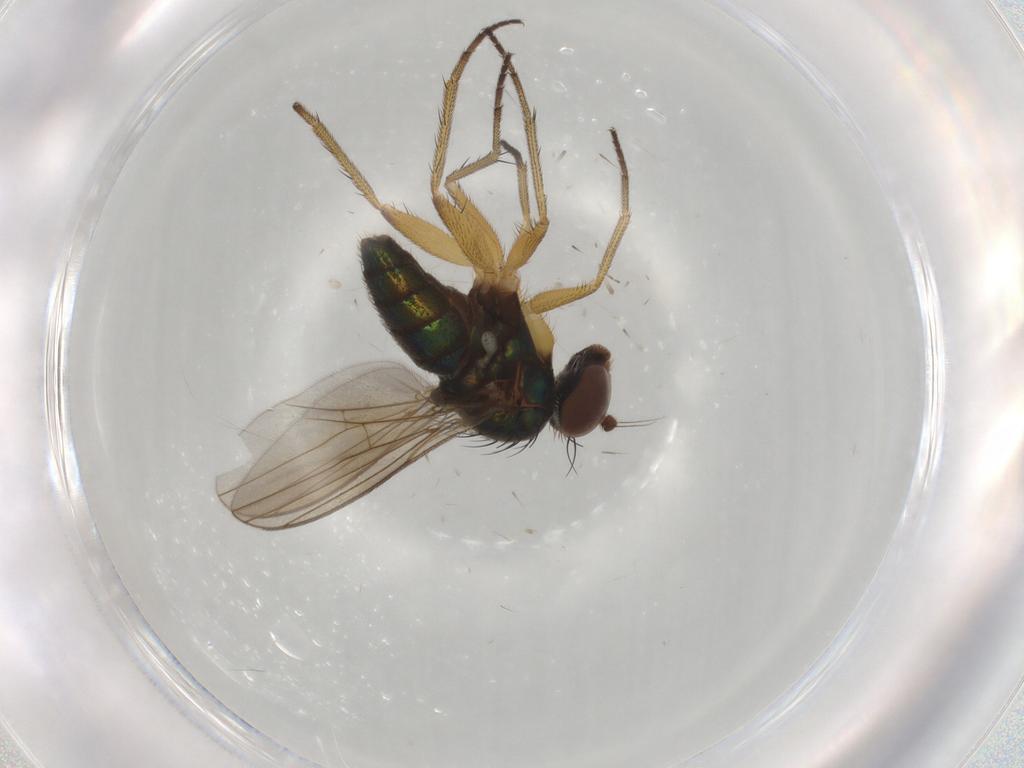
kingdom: Animalia
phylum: Arthropoda
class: Insecta
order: Diptera
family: Dolichopodidae
